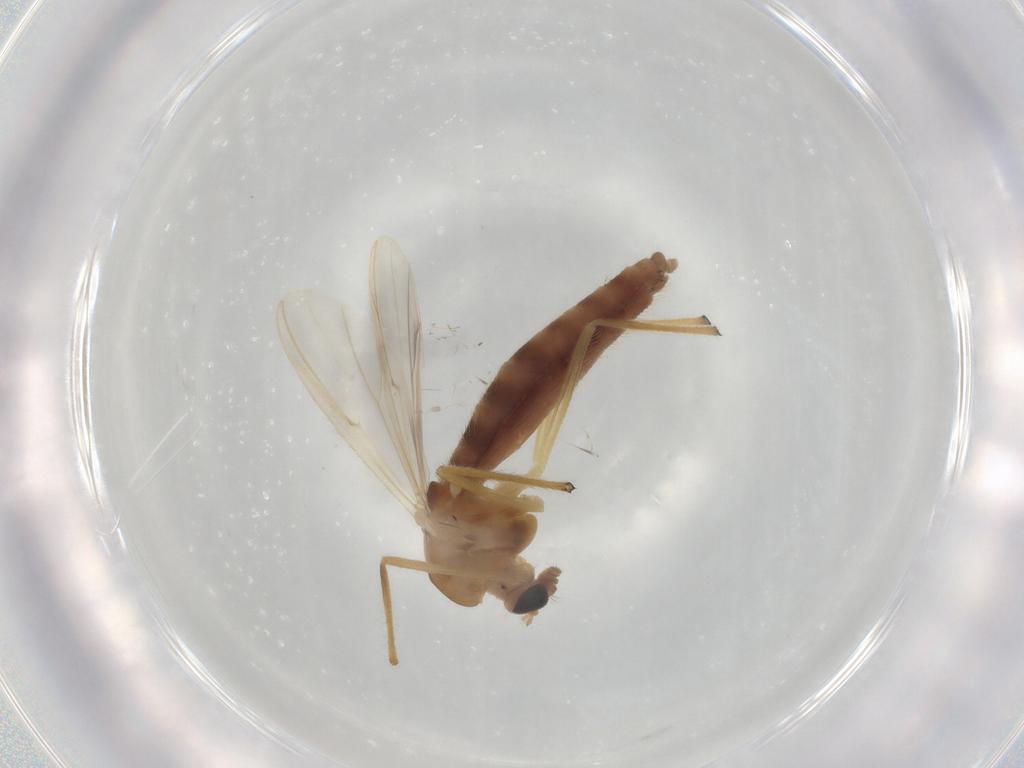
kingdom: Animalia
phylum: Arthropoda
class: Insecta
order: Diptera
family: Chironomidae
